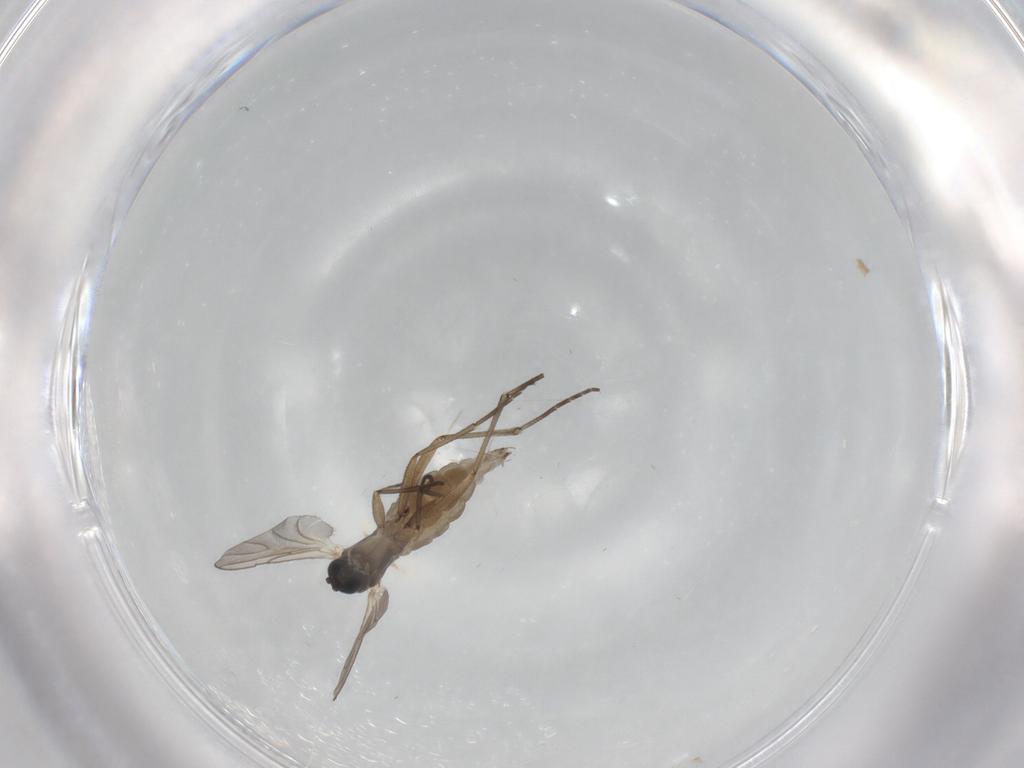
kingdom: Animalia
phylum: Arthropoda
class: Insecta
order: Diptera
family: Sciaridae
